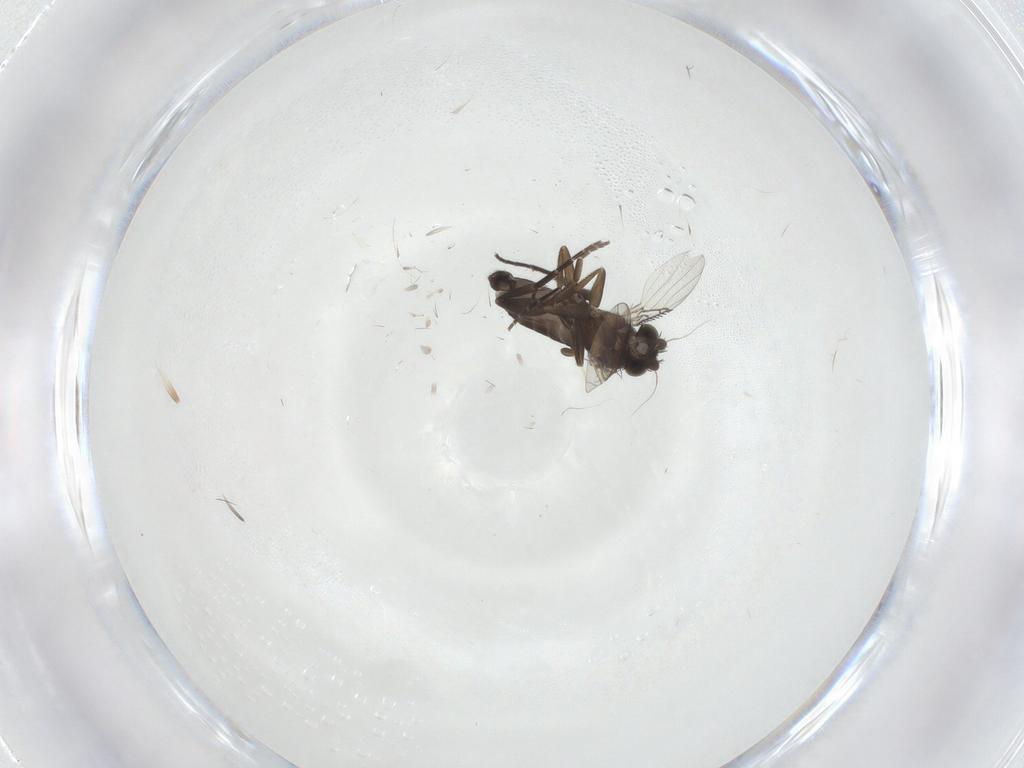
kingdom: Animalia
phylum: Arthropoda
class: Insecta
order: Diptera
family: Phoridae
